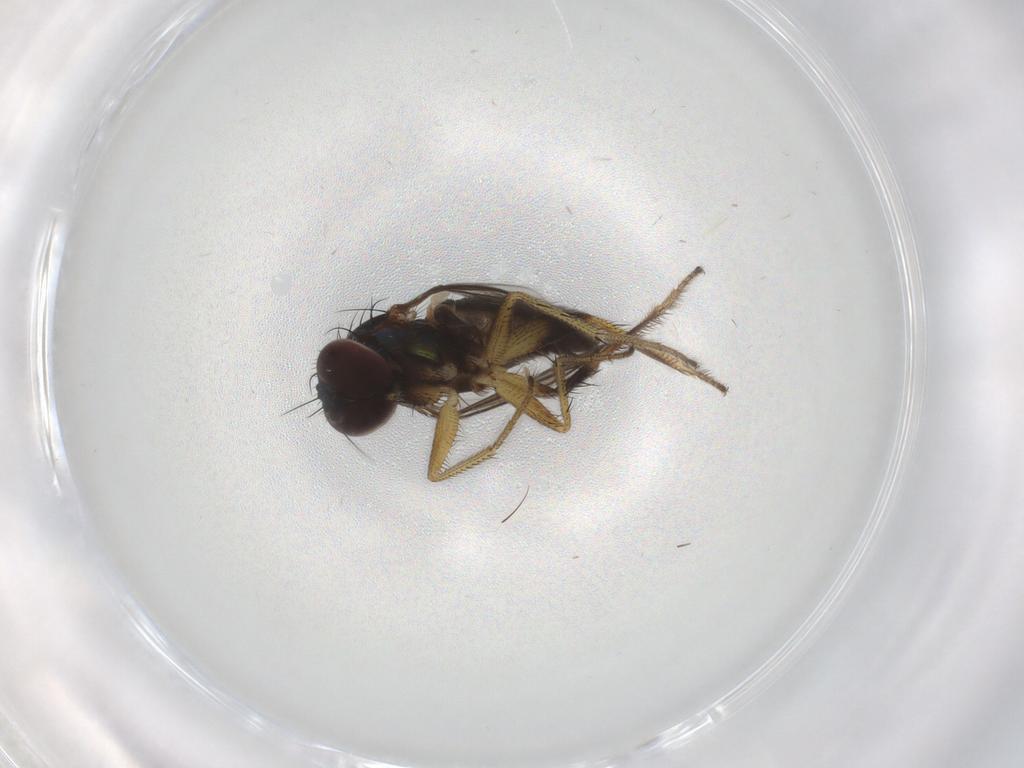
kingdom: Animalia
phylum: Arthropoda
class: Insecta
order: Diptera
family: Dolichopodidae
